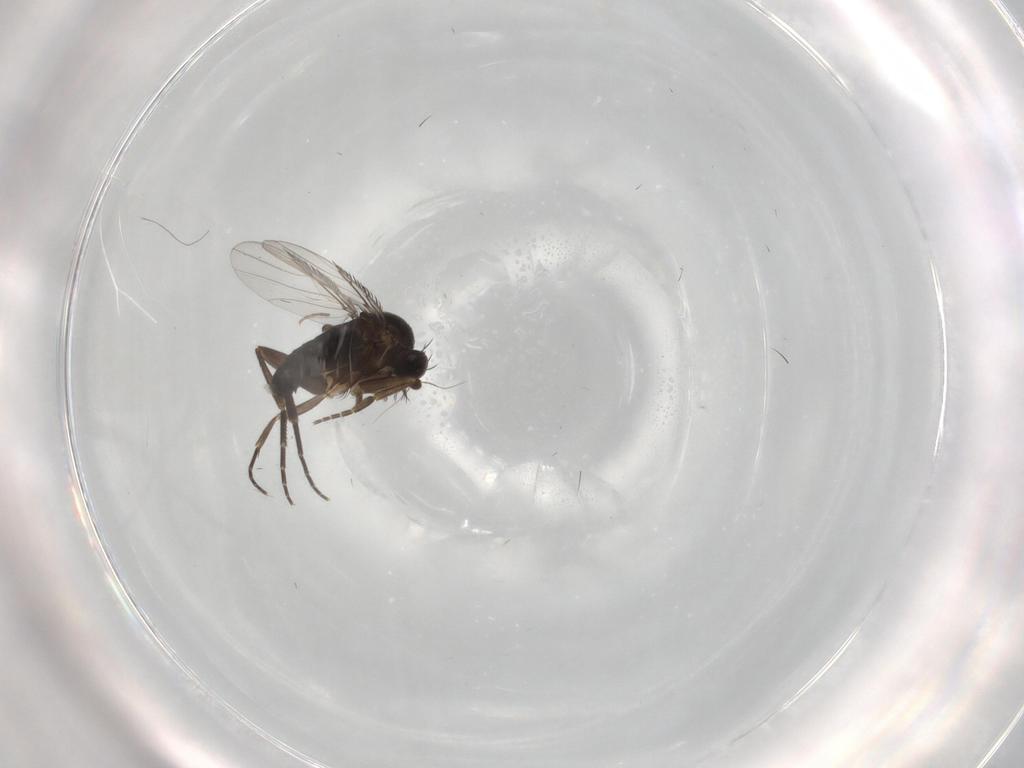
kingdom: Animalia
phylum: Arthropoda
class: Insecta
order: Diptera
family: Phoridae
